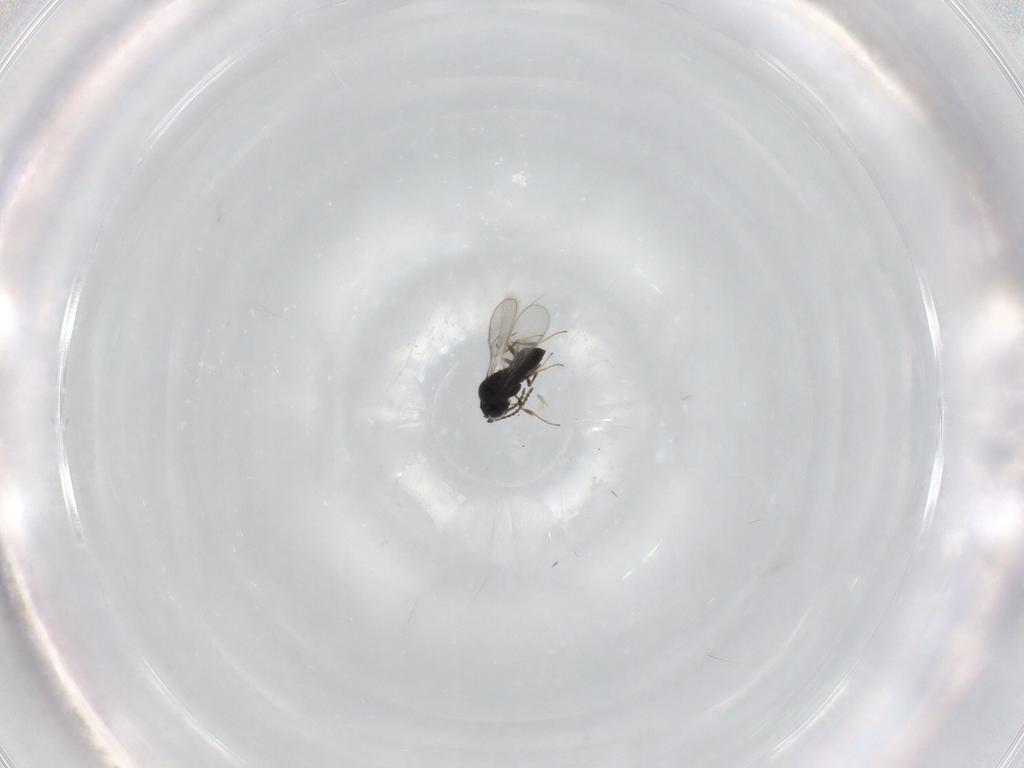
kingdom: Animalia
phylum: Arthropoda
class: Insecta
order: Hymenoptera
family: Scelionidae
